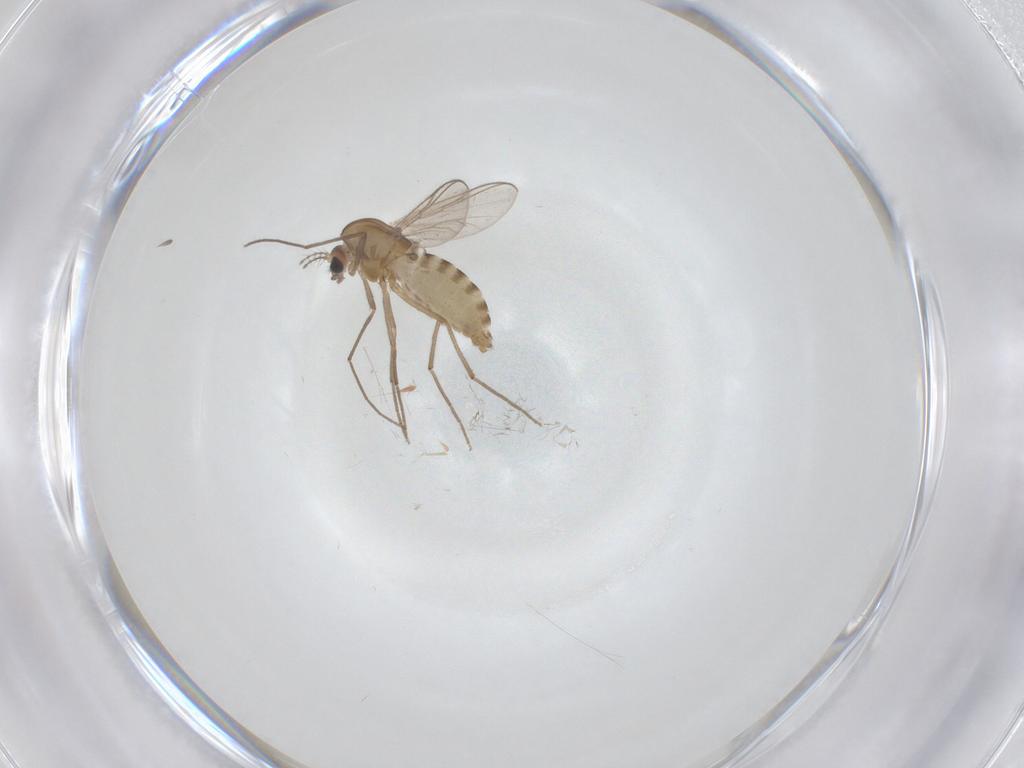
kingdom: Animalia
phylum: Arthropoda
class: Insecta
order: Diptera
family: Chironomidae
